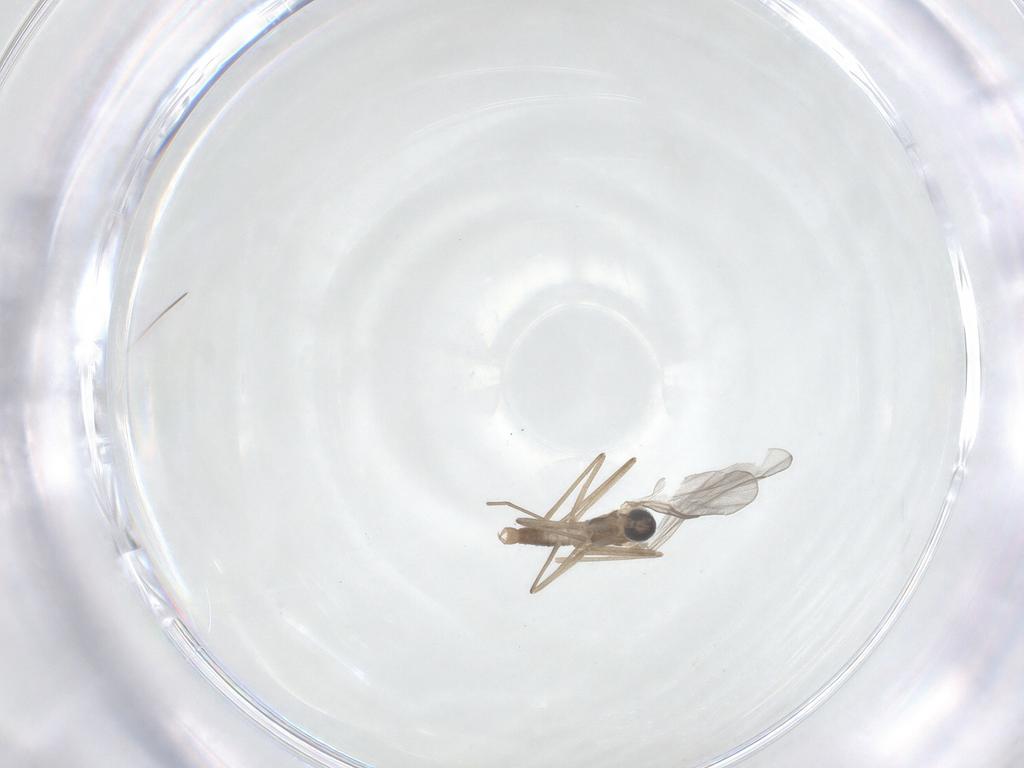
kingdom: Animalia
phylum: Arthropoda
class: Insecta
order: Diptera
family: Cecidomyiidae
